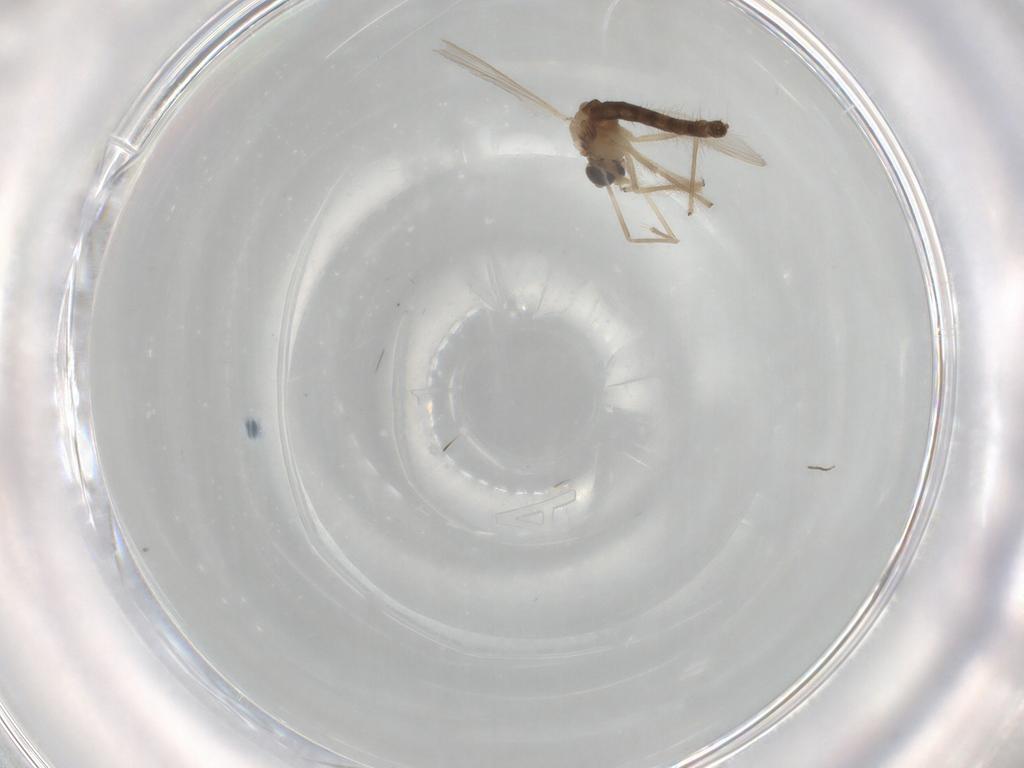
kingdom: Animalia
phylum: Arthropoda
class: Insecta
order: Diptera
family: Chironomidae
